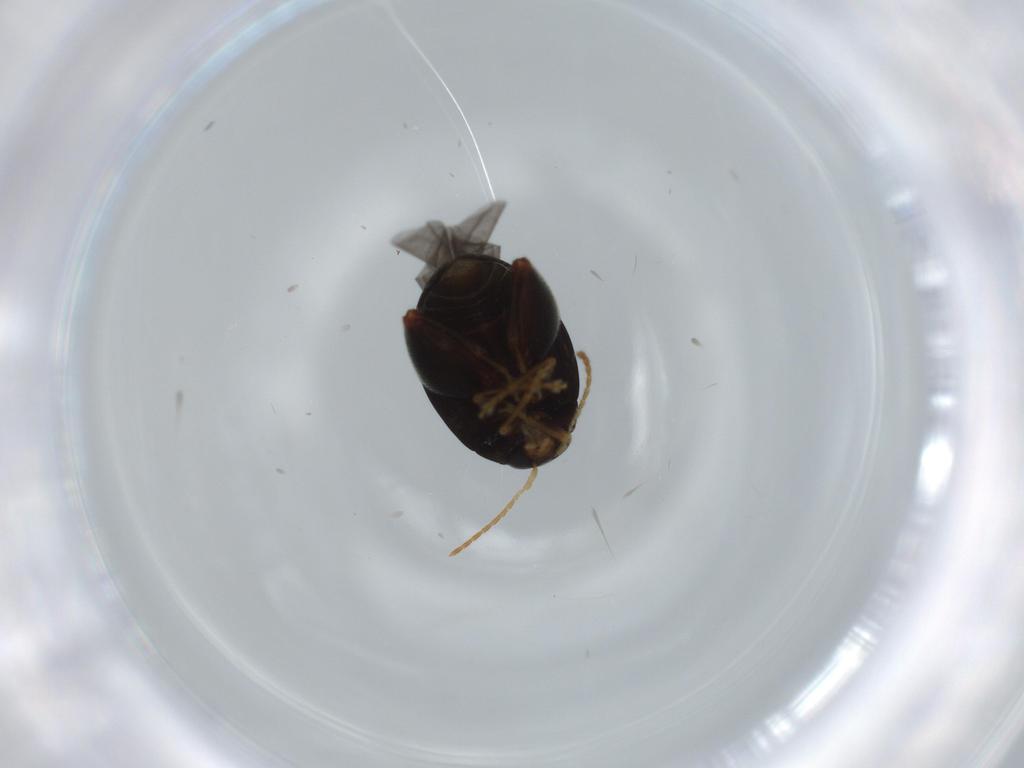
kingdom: Animalia
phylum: Arthropoda
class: Insecta
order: Coleoptera
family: Chrysomelidae
